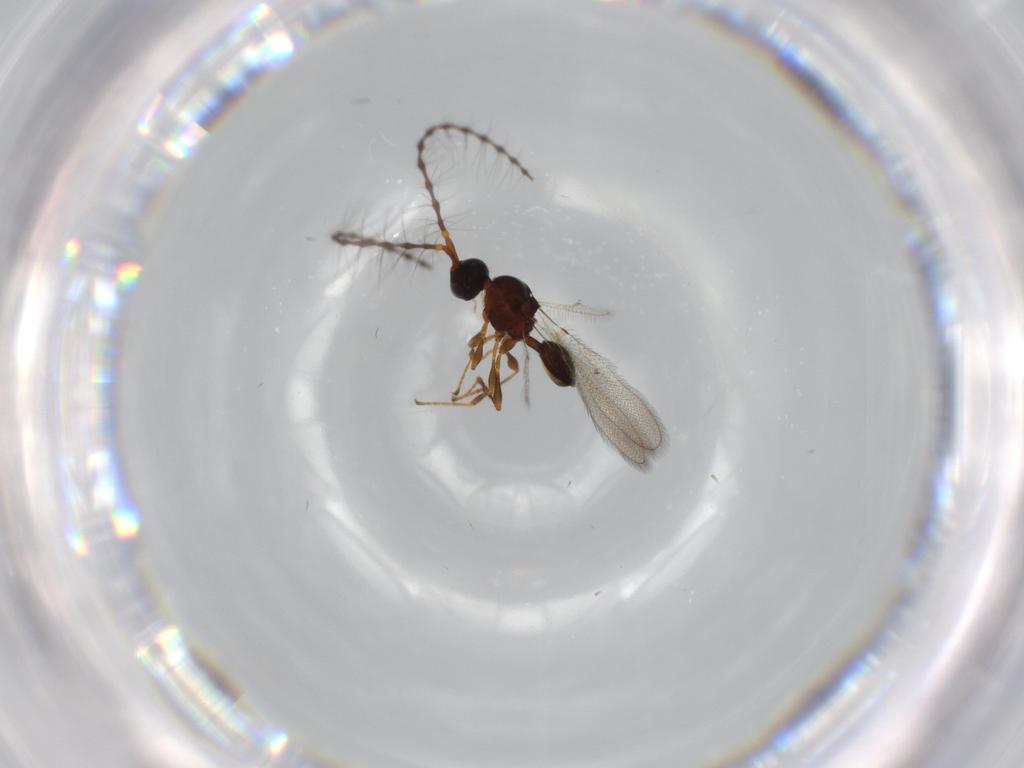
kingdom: Animalia
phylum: Arthropoda
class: Insecta
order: Hymenoptera
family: Diapriidae
